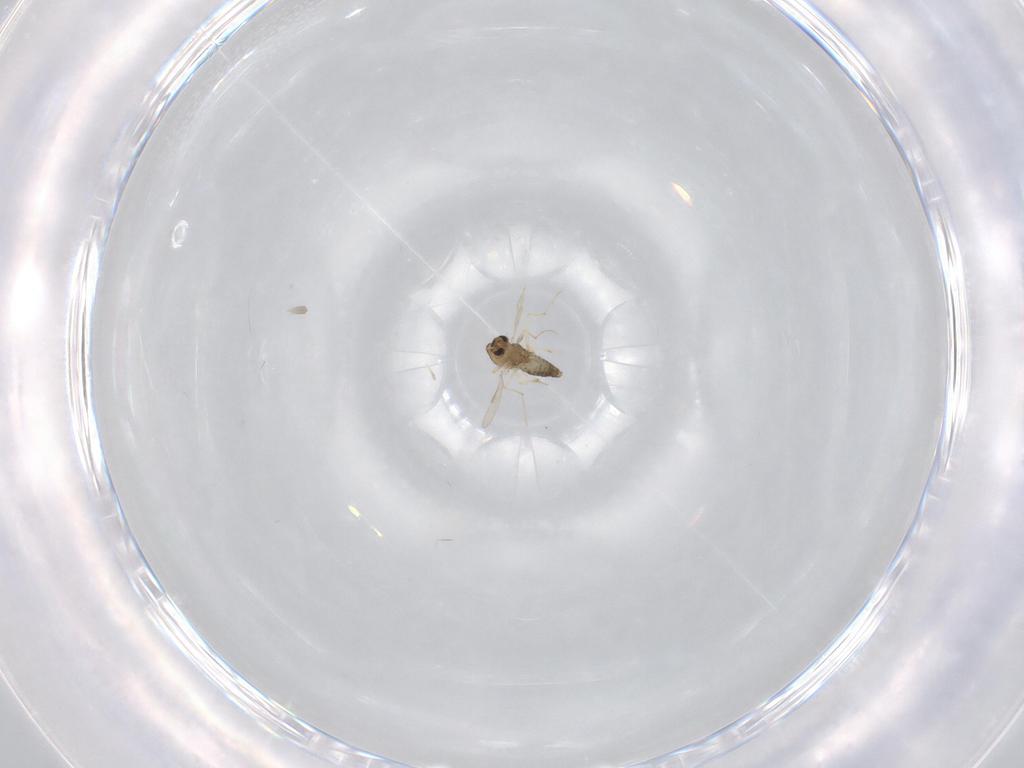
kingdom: Animalia
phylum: Arthropoda
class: Insecta
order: Diptera
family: Chironomidae
